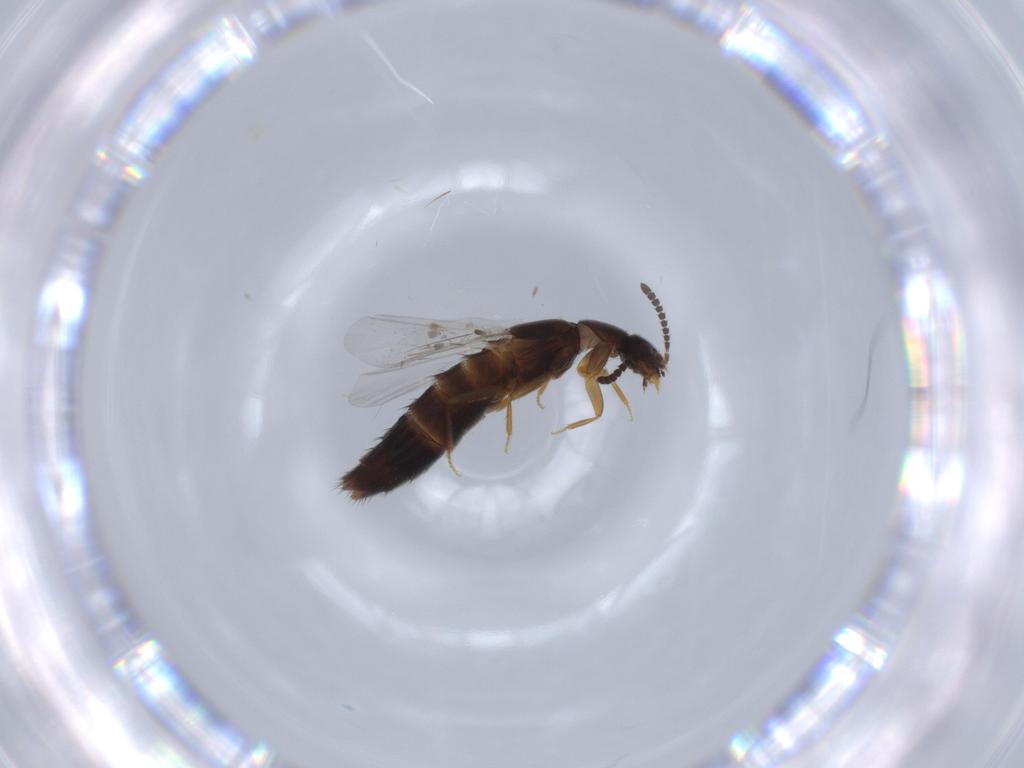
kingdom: Animalia
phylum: Arthropoda
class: Insecta
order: Coleoptera
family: Staphylinidae
